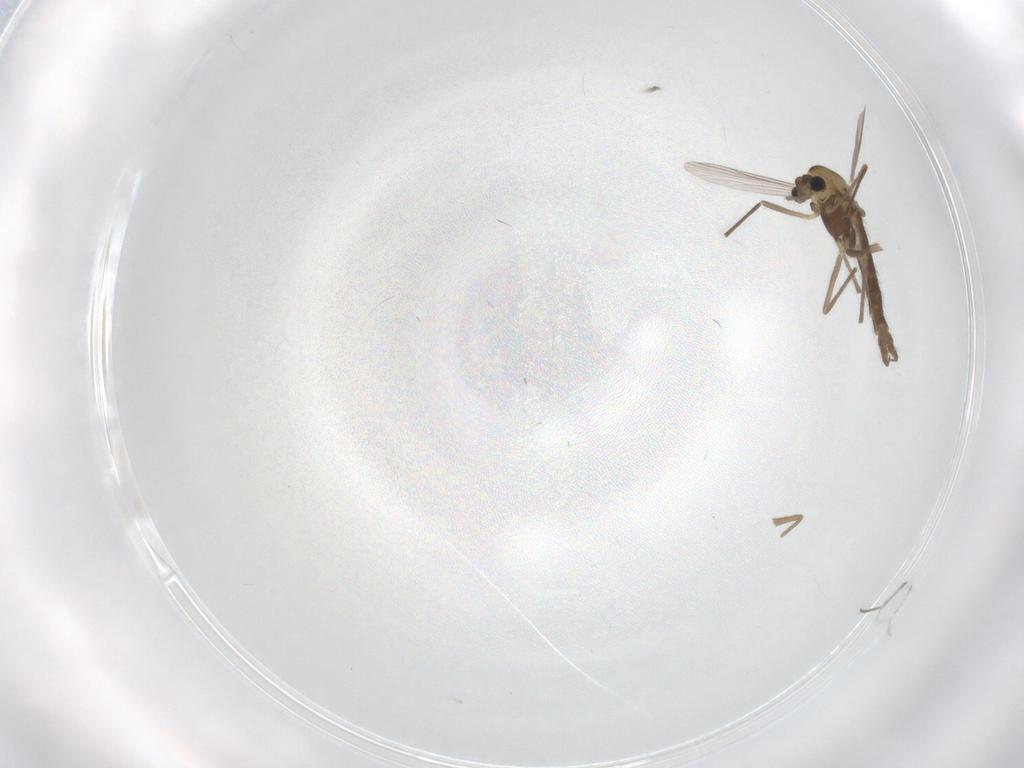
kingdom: Animalia
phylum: Arthropoda
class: Insecta
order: Diptera
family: Chironomidae
